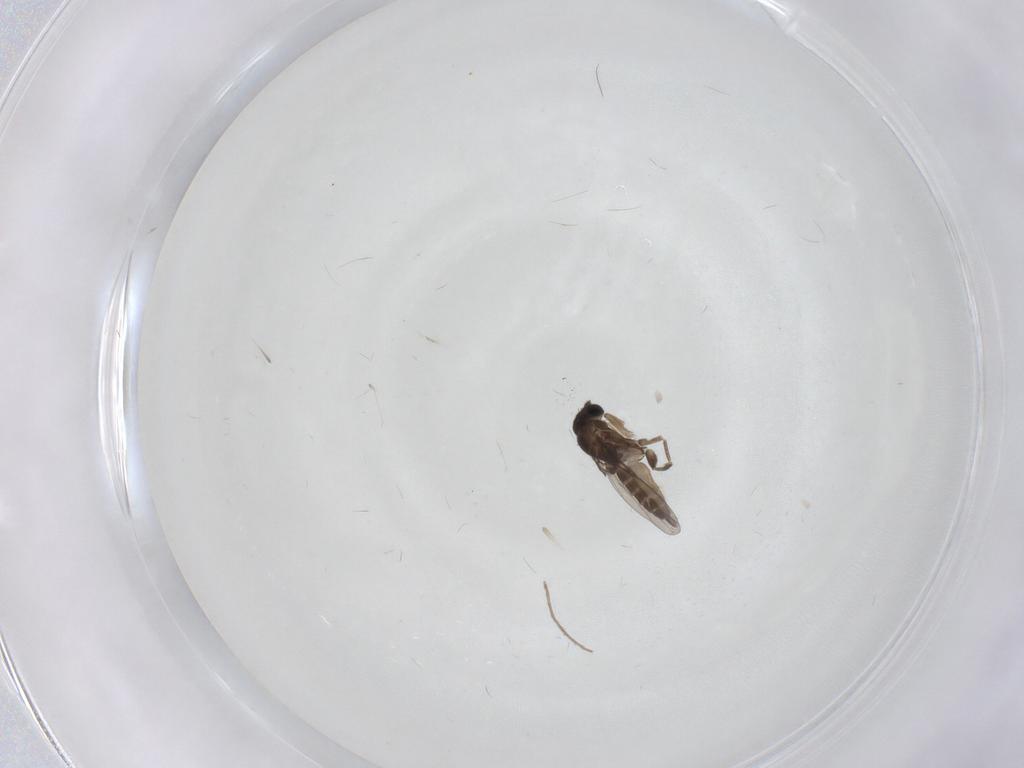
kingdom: Animalia
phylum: Arthropoda
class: Insecta
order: Diptera
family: Phoridae
